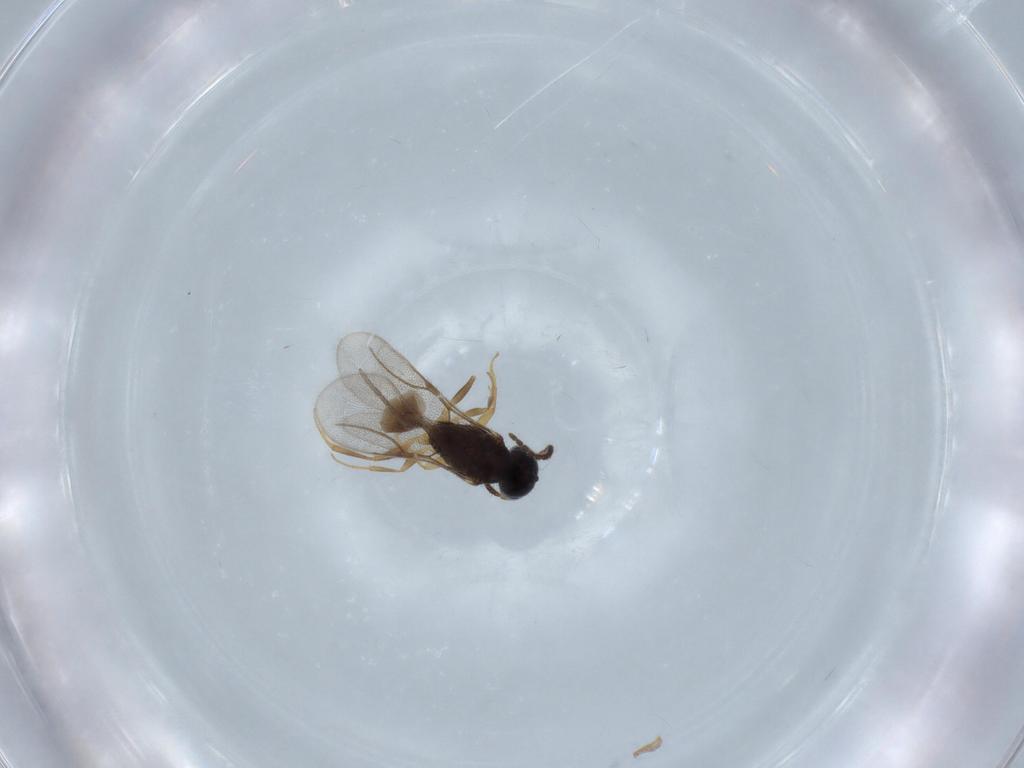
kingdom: Animalia
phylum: Arthropoda
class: Insecta
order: Hymenoptera
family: Bethylidae
